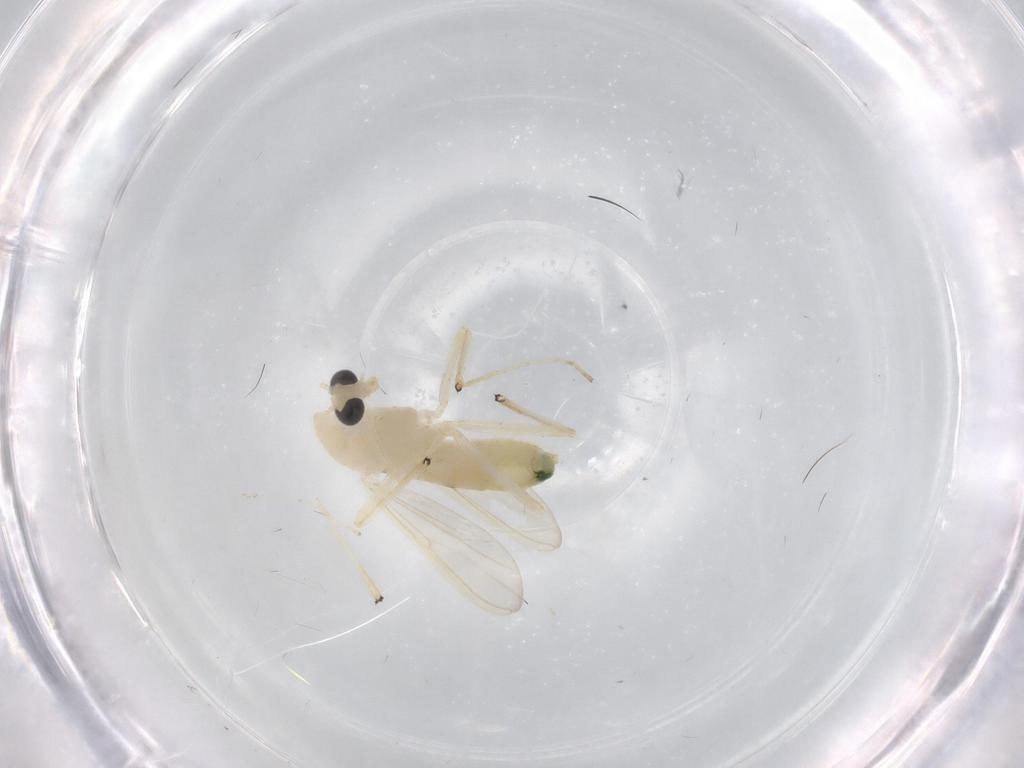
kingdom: Animalia
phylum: Arthropoda
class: Insecta
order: Diptera
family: Chironomidae
